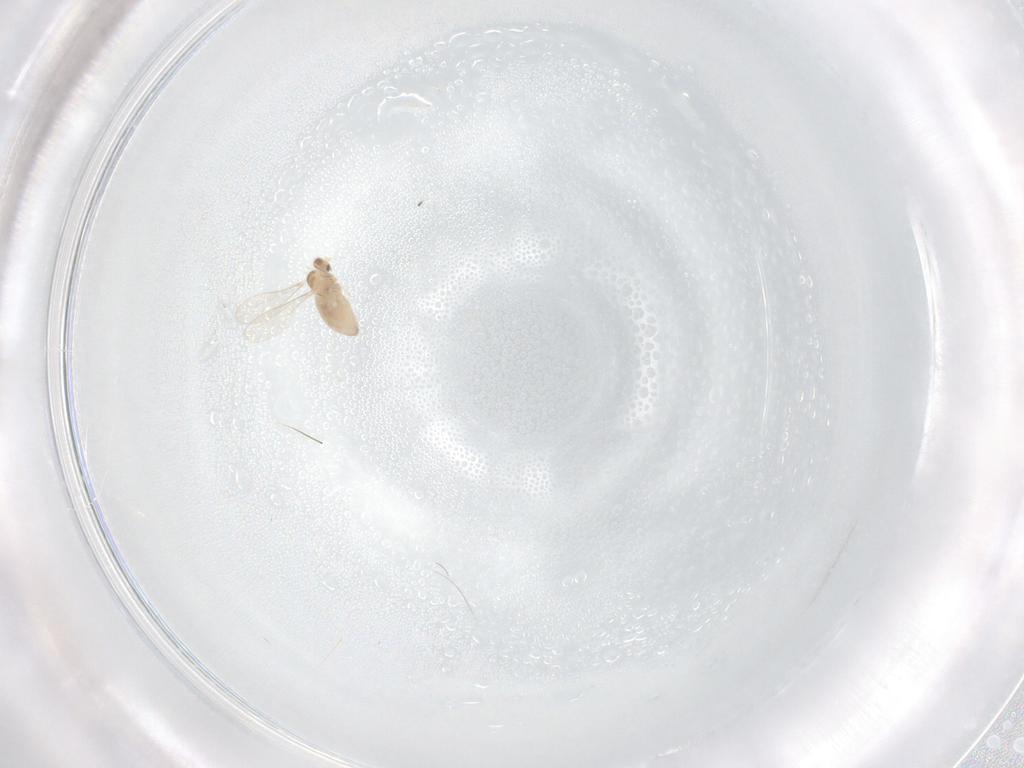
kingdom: Animalia
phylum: Arthropoda
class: Insecta
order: Diptera
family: Cecidomyiidae
